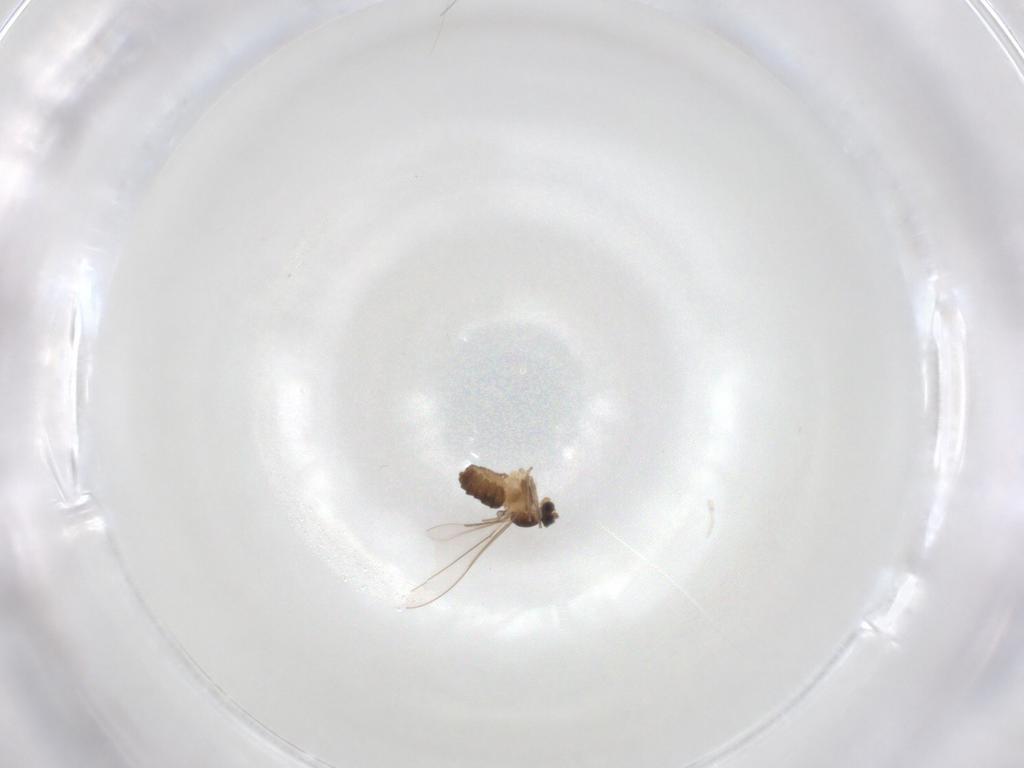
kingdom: Animalia
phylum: Arthropoda
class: Insecta
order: Diptera
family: Cecidomyiidae
